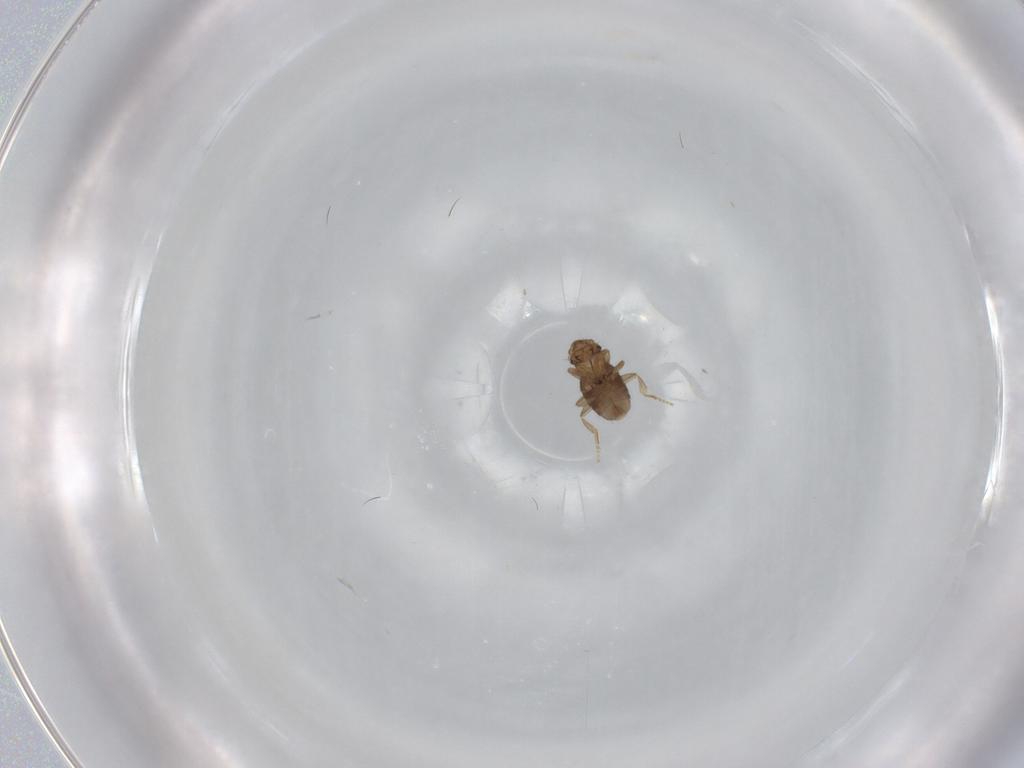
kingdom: Animalia
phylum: Arthropoda
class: Insecta
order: Diptera
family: Chironomidae
